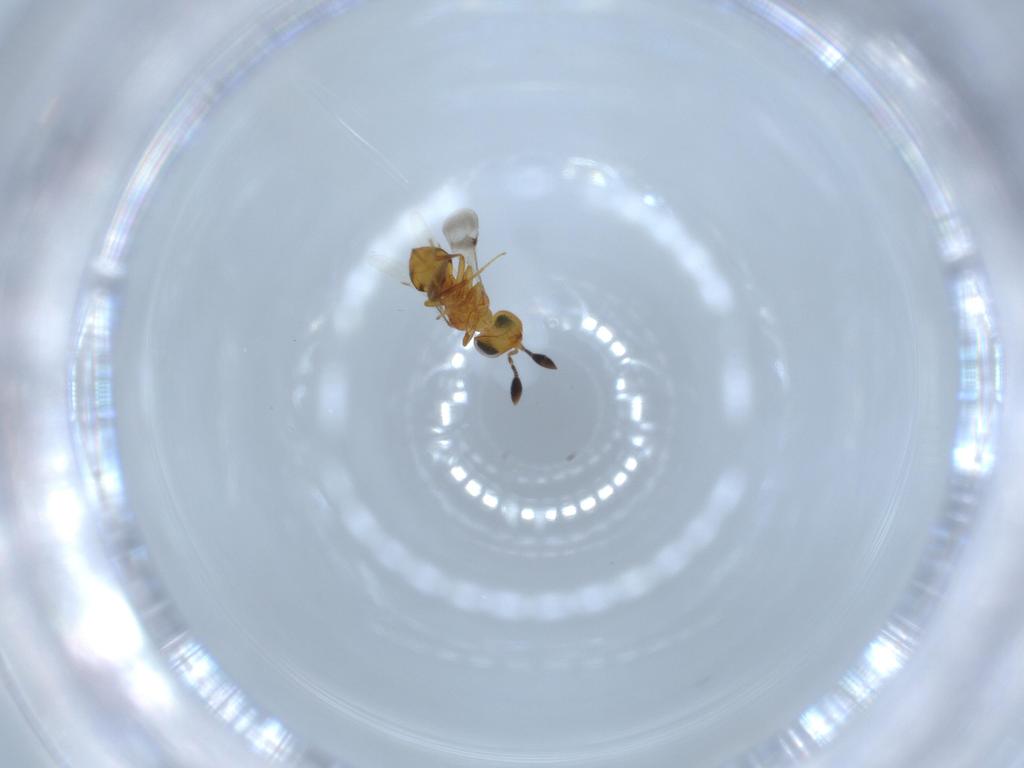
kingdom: Animalia
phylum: Arthropoda
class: Insecta
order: Hymenoptera
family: Scelionidae
